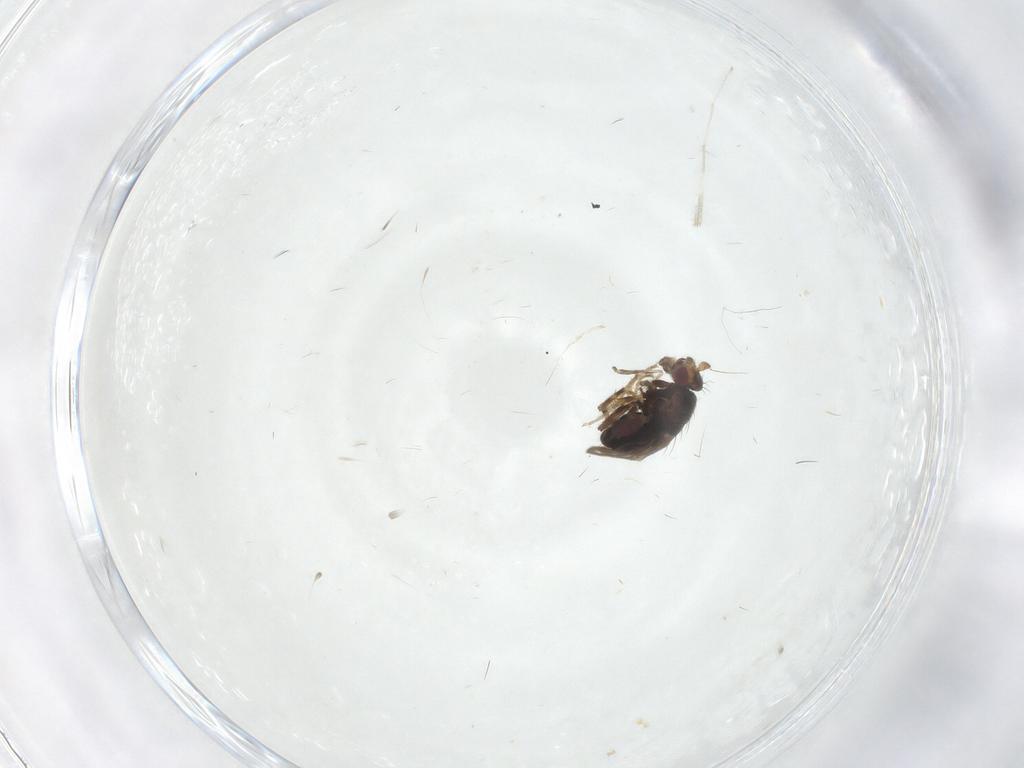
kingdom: Animalia
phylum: Arthropoda
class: Insecta
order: Diptera
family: Sphaeroceridae
